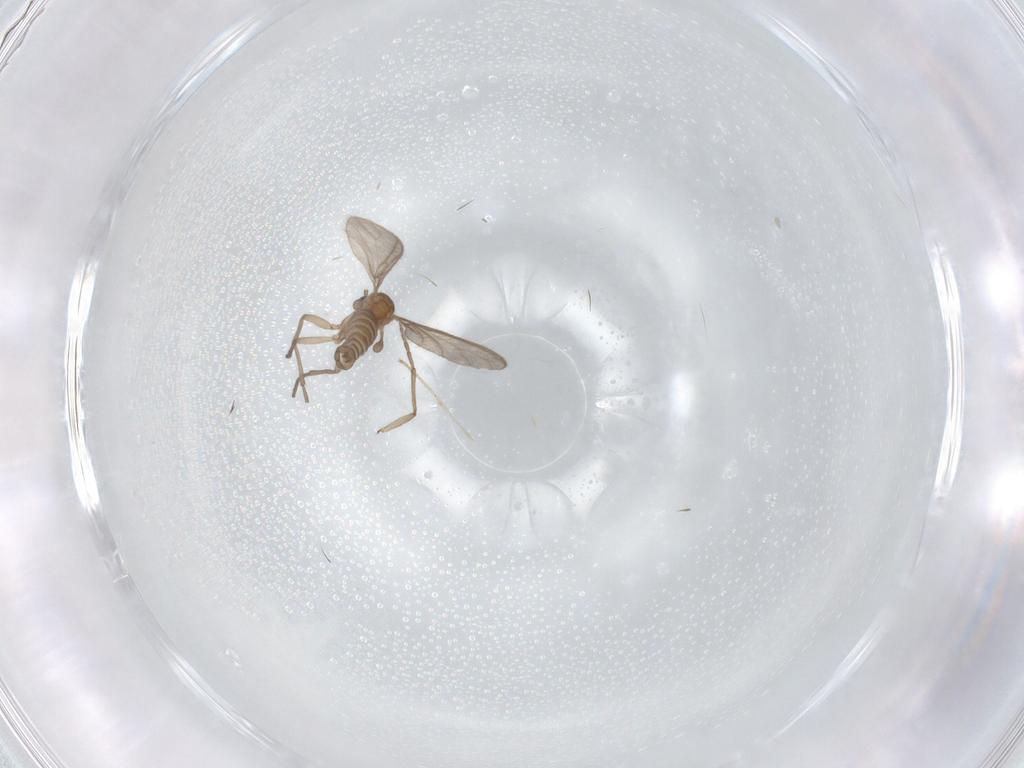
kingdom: Animalia
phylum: Arthropoda
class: Insecta
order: Diptera
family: Sciaridae
